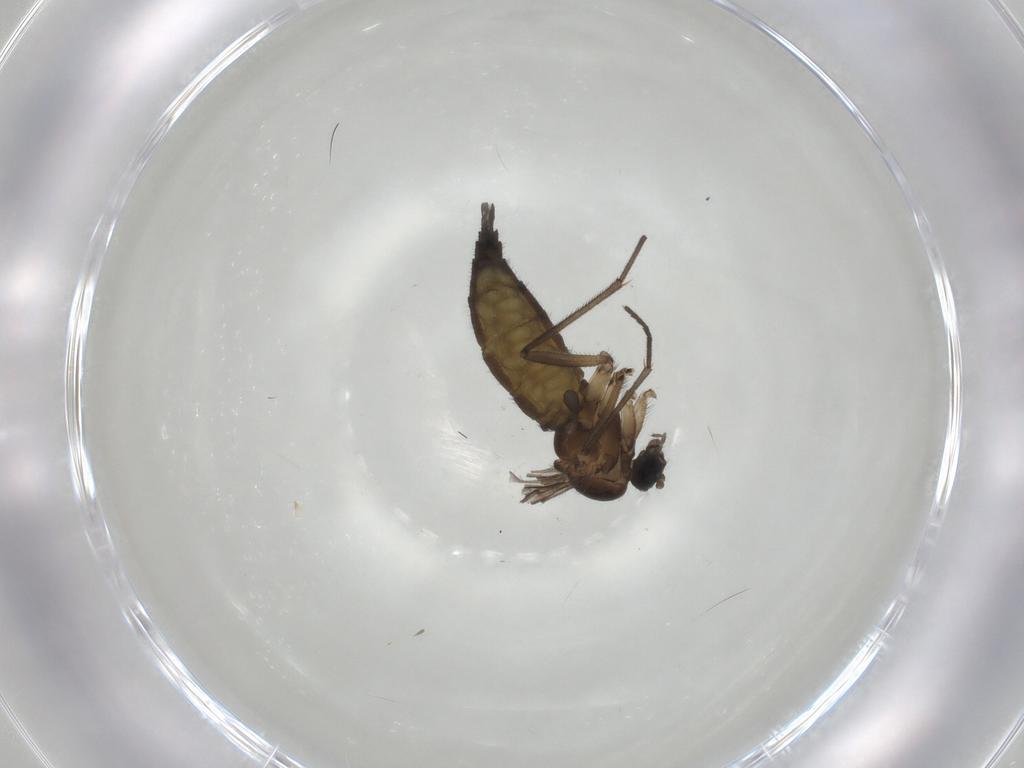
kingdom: Animalia
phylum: Arthropoda
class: Insecta
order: Diptera
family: Sciaridae
